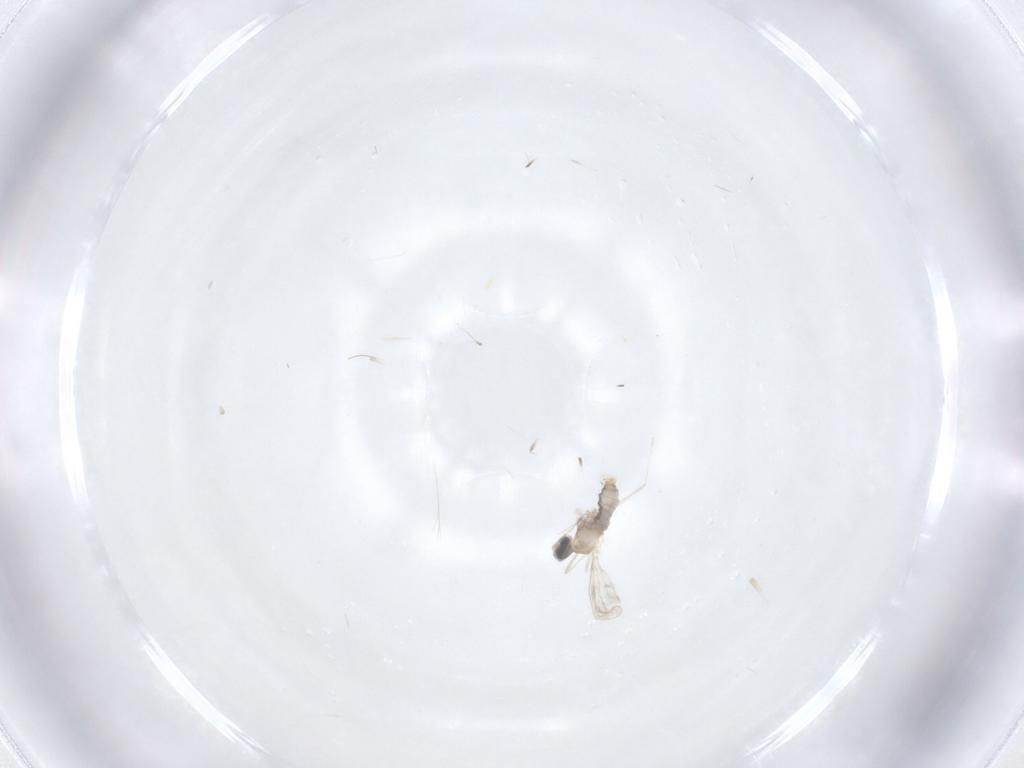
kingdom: Animalia
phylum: Arthropoda
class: Insecta
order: Diptera
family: Cecidomyiidae
